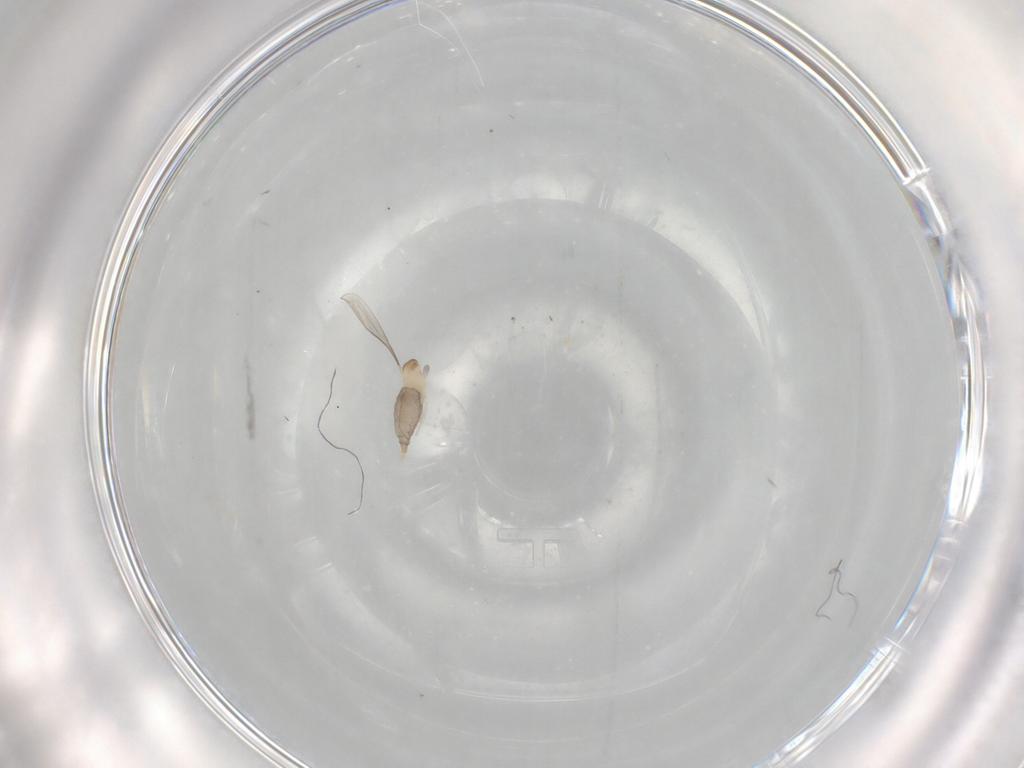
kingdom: Animalia
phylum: Arthropoda
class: Insecta
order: Diptera
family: Cecidomyiidae
